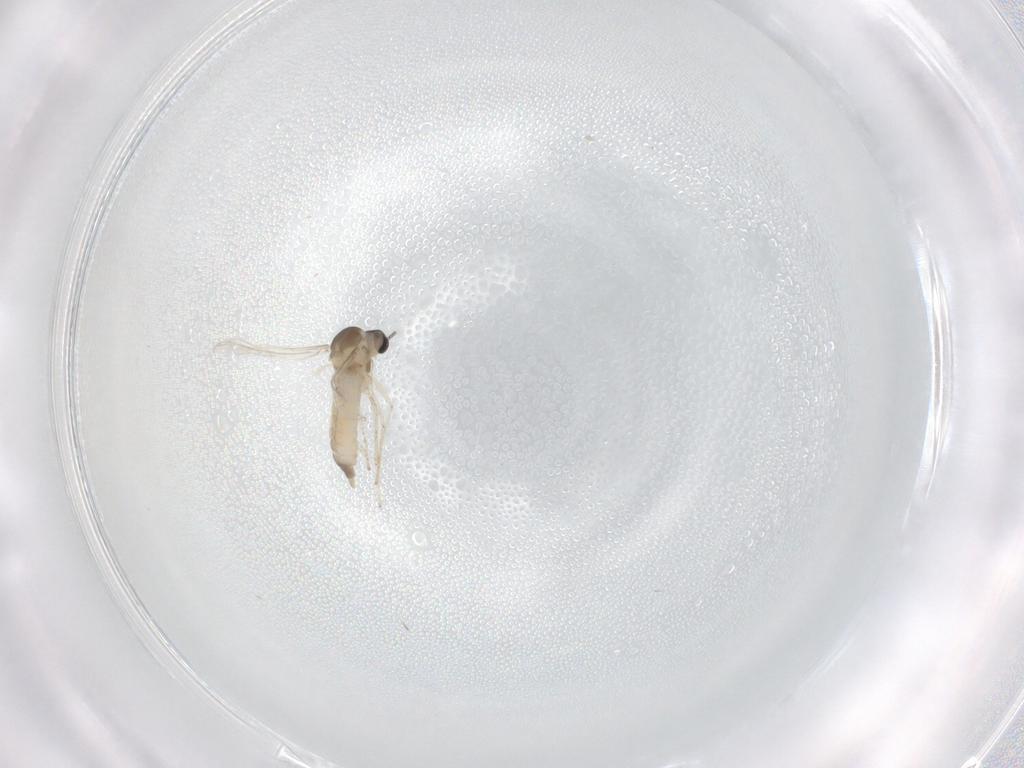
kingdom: Animalia
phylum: Arthropoda
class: Insecta
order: Diptera
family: Cecidomyiidae
